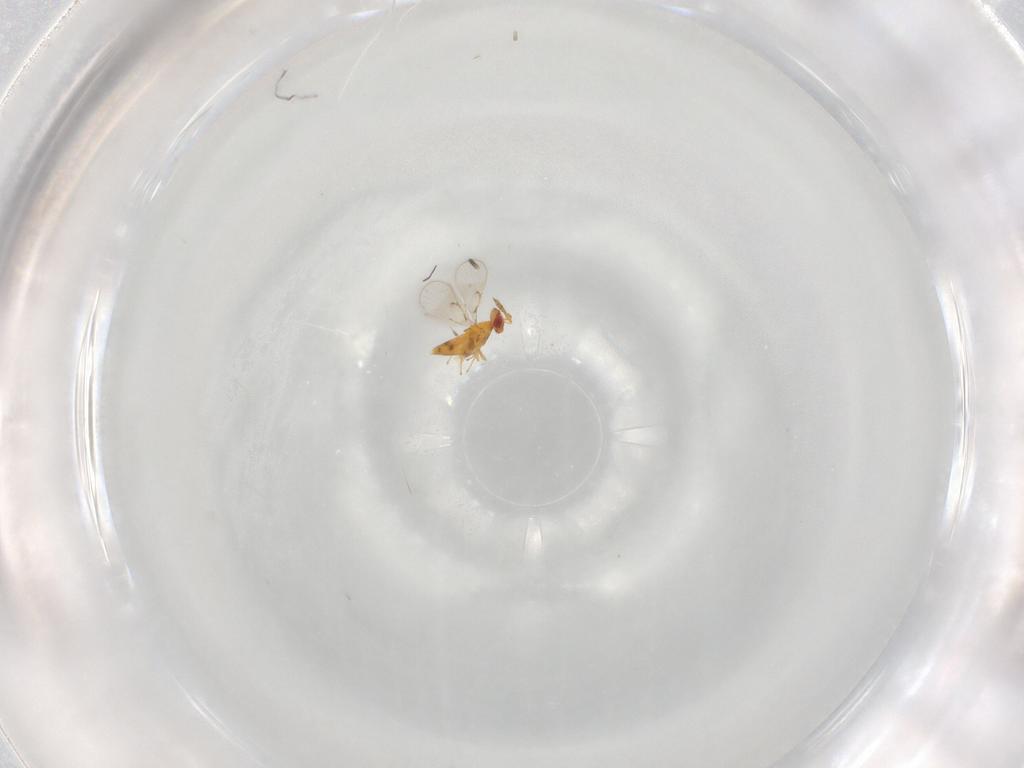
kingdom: Animalia
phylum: Arthropoda
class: Insecta
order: Hymenoptera
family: Scelionidae
